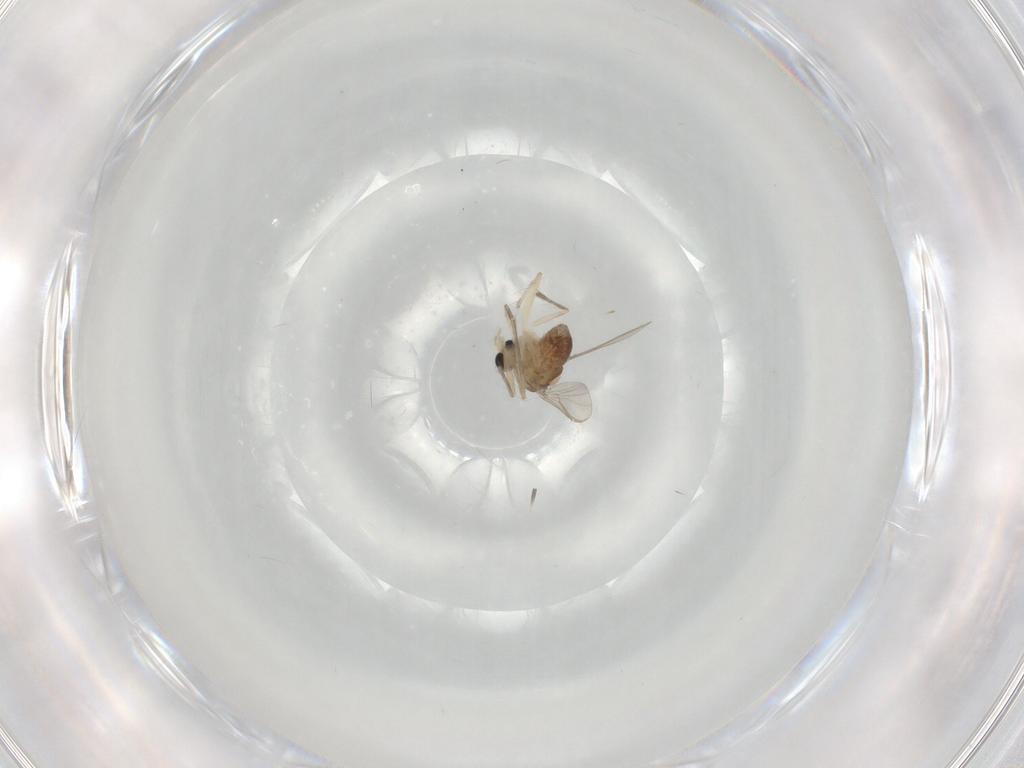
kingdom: Animalia
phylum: Arthropoda
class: Insecta
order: Diptera
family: Chironomidae
